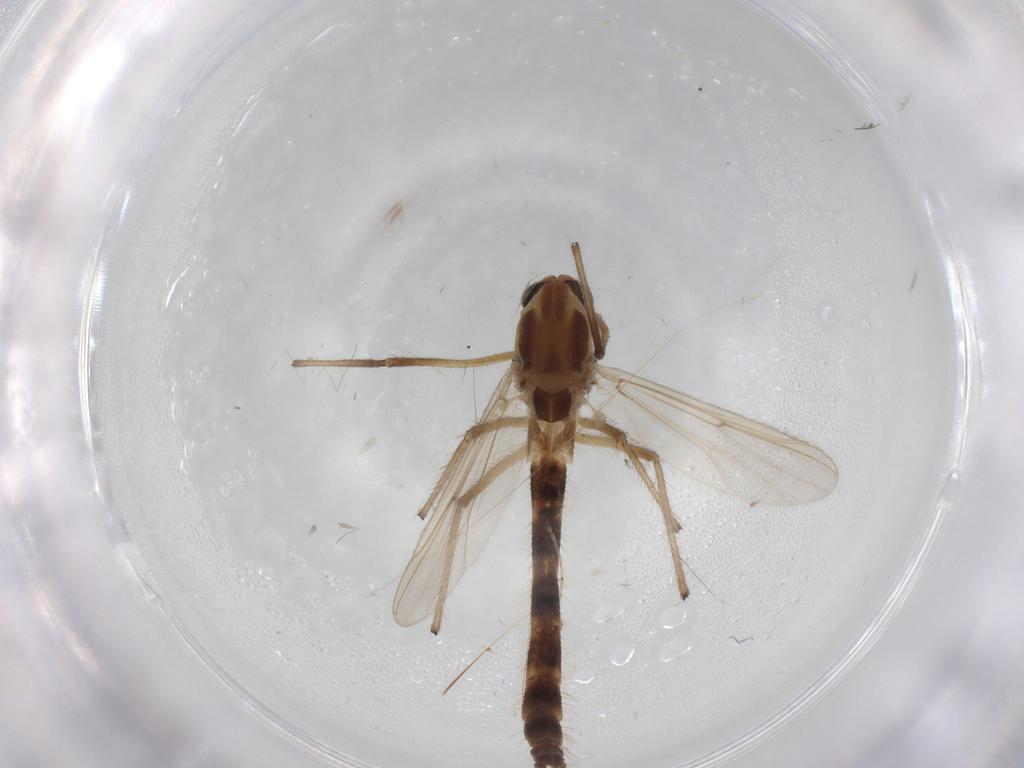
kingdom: Animalia
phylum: Arthropoda
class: Insecta
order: Diptera
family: Chironomidae
